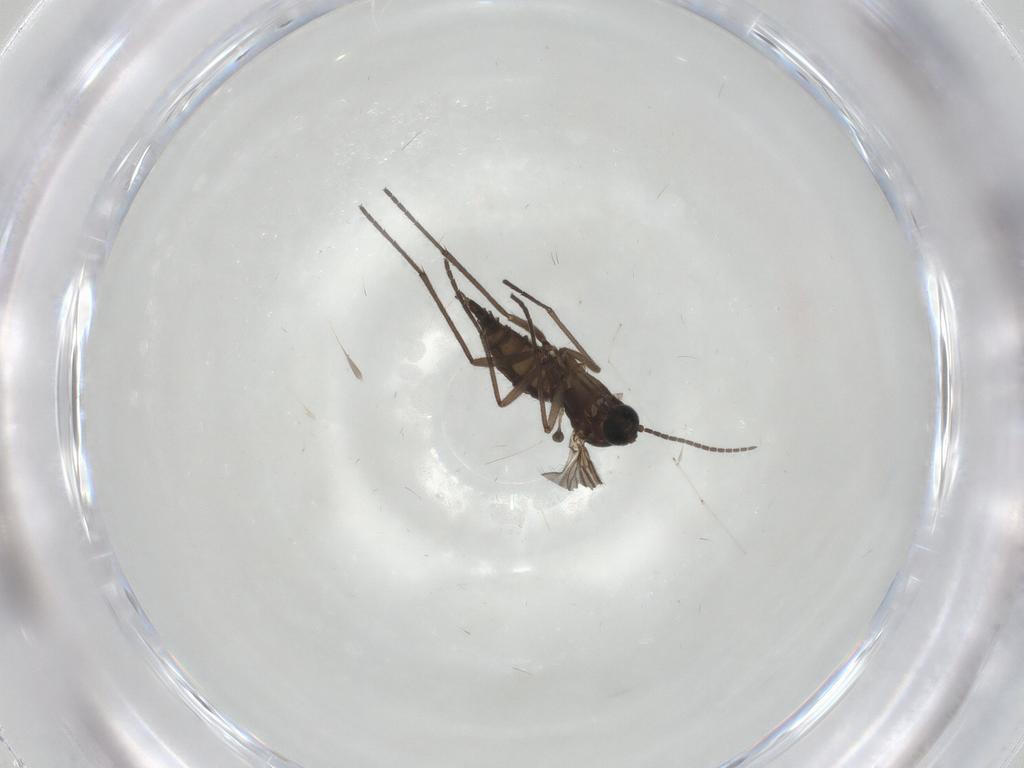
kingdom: Animalia
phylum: Arthropoda
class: Insecta
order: Diptera
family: Sciaridae
